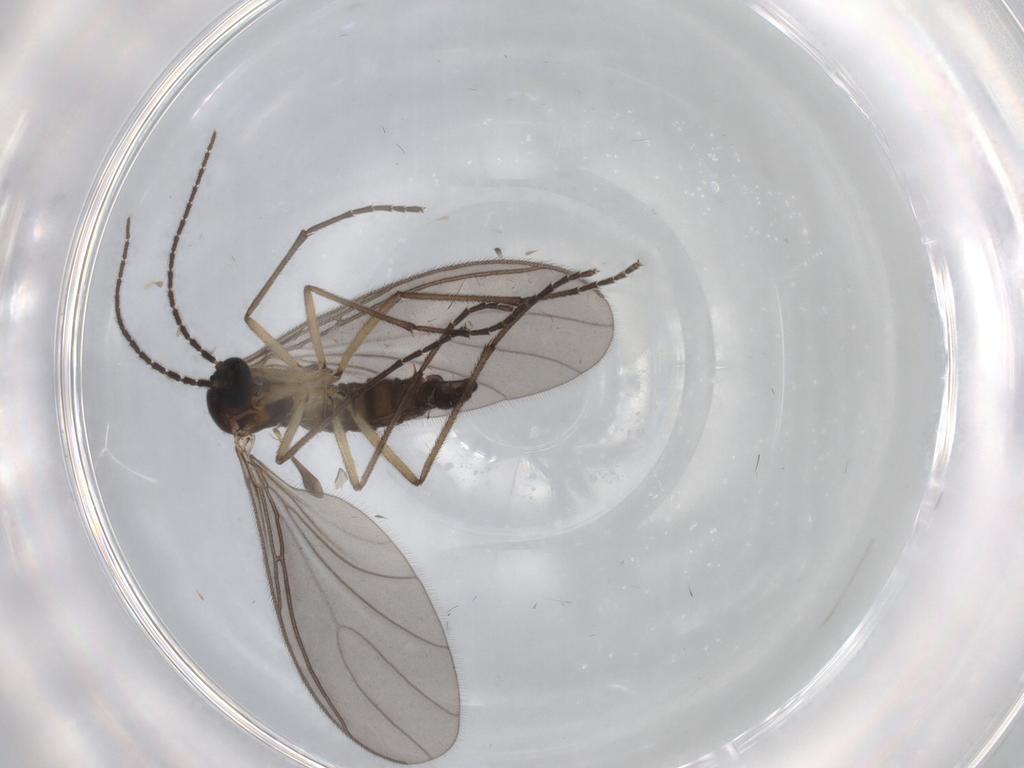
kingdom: Animalia
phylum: Arthropoda
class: Insecta
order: Diptera
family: Sciaridae
